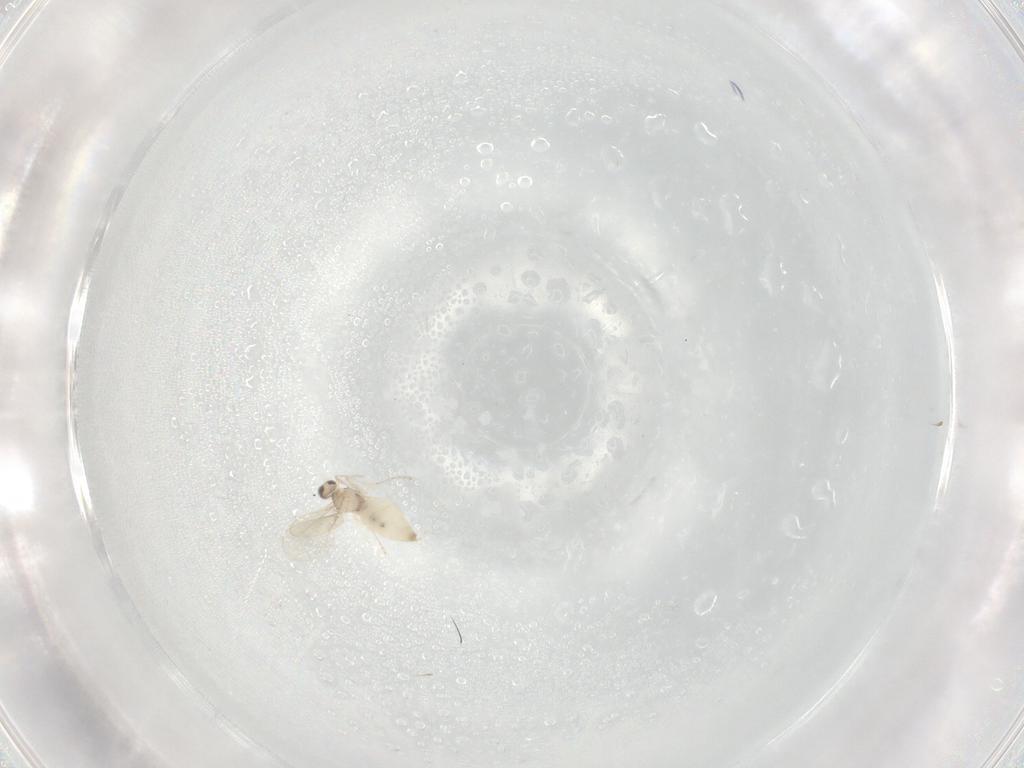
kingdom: Animalia
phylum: Arthropoda
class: Insecta
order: Diptera
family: Cecidomyiidae
